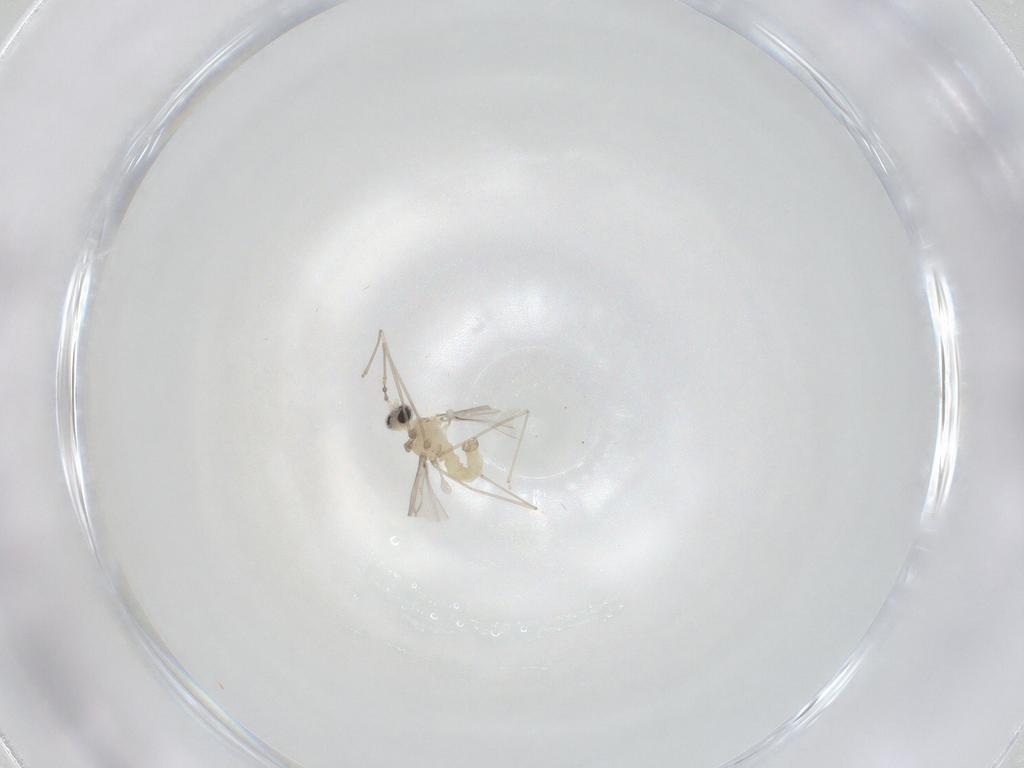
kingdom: Animalia
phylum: Arthropoda
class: Insecta
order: Diptera
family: Cecidomyiidae
